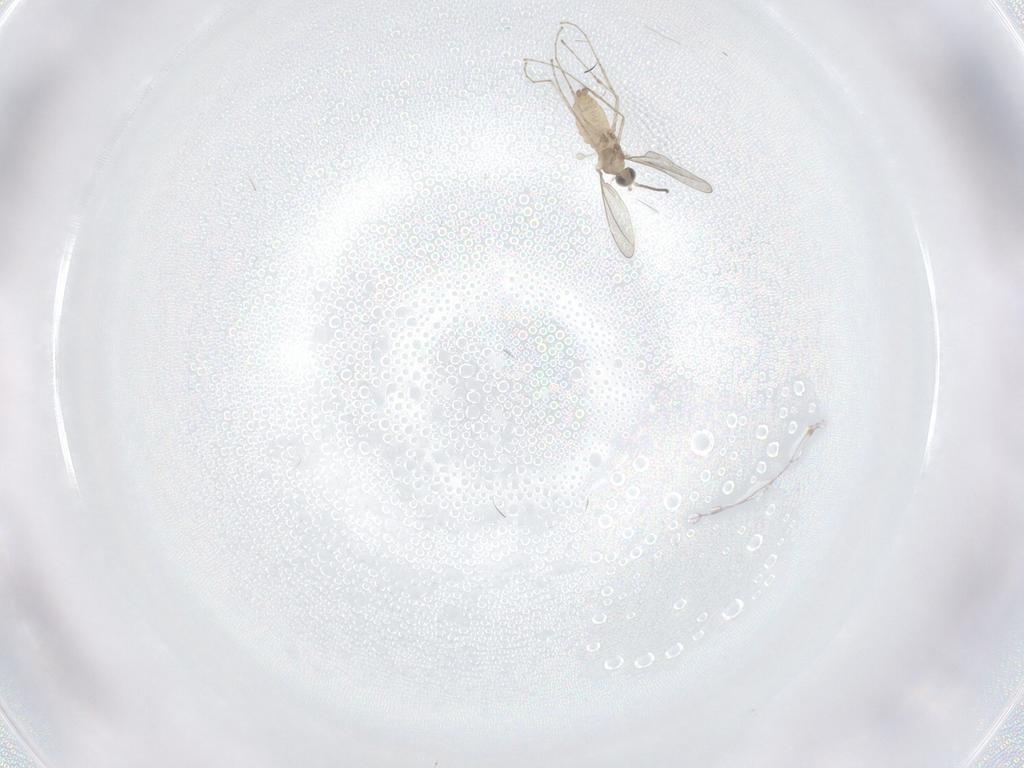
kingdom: Animalia
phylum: Arthropoda
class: Insecta
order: Diptera
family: Cecidomyiidae
